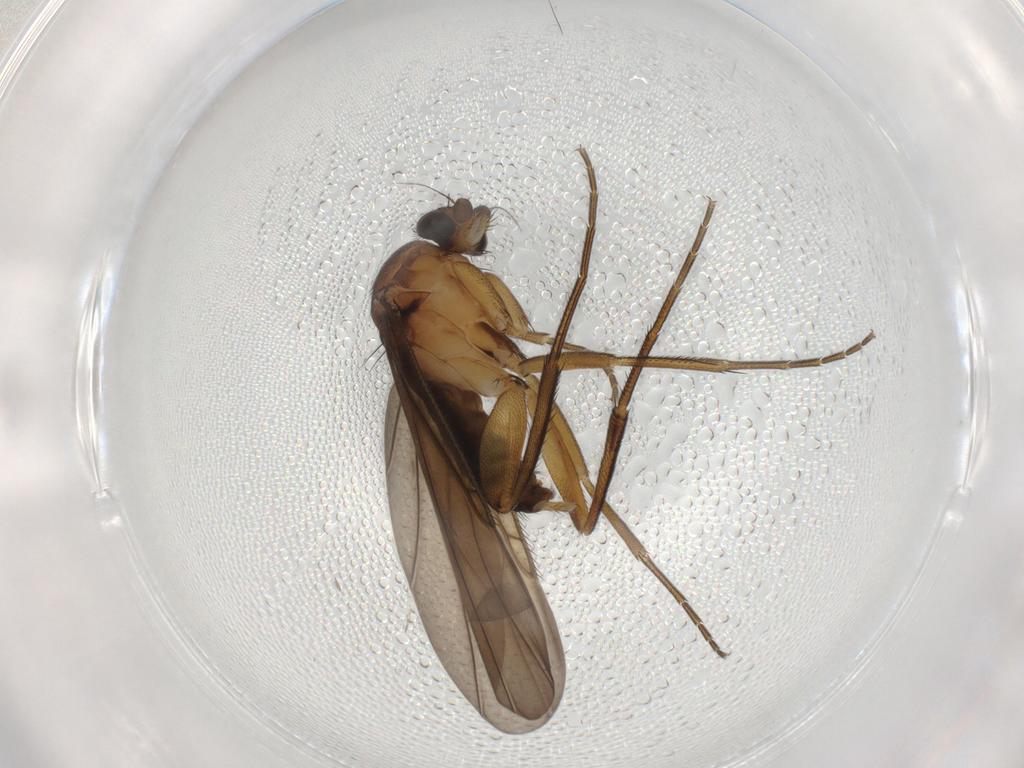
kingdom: Animalia
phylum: Arthropoda
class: Insecta
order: Diptera
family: Phoridae
